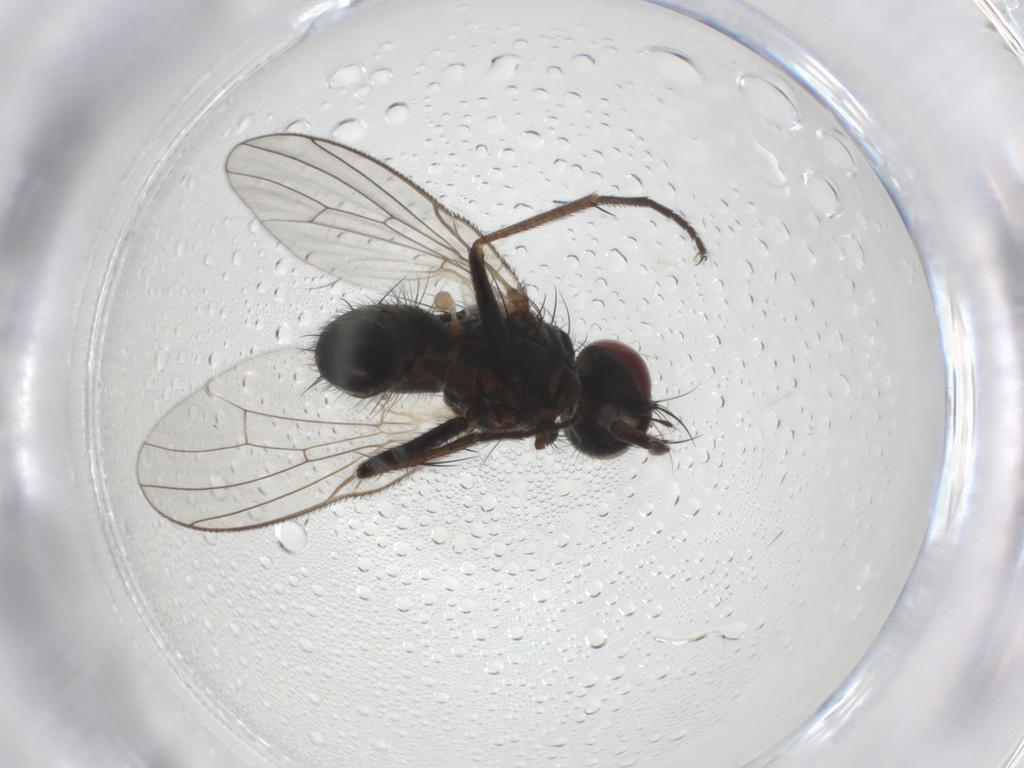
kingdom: Animalia
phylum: Arthropoda
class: Insecta
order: Diptera
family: Muscidae
